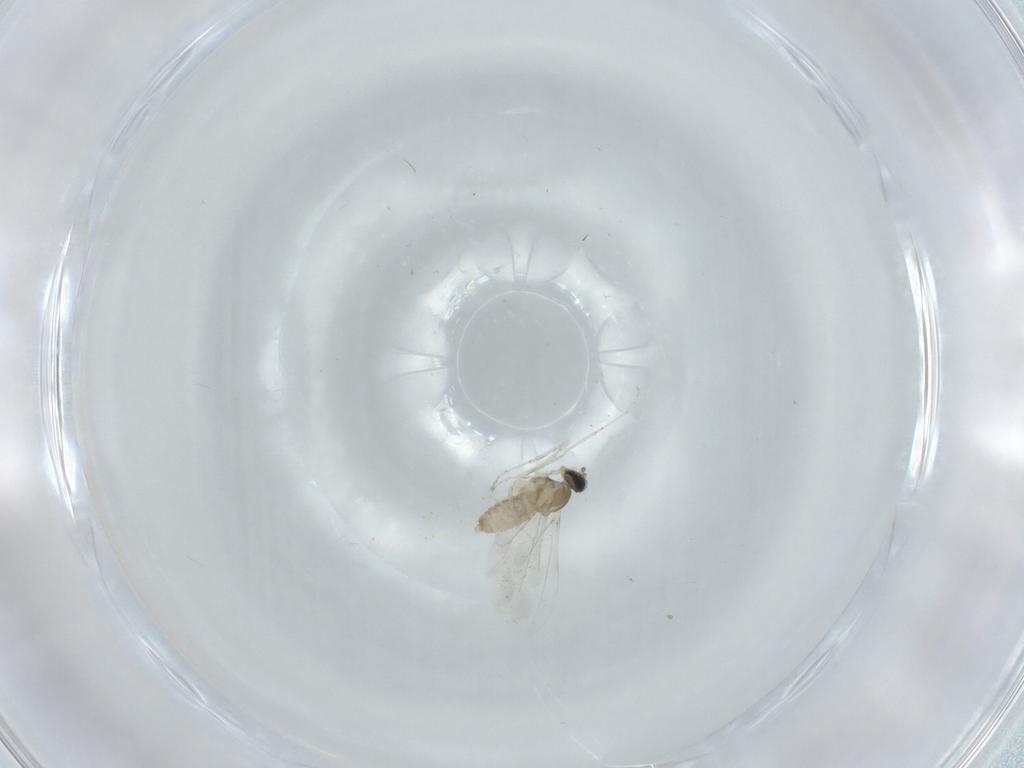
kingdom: Animalia
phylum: Arthropoda
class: Insecta
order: Diptera
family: Cecidomyiidae
